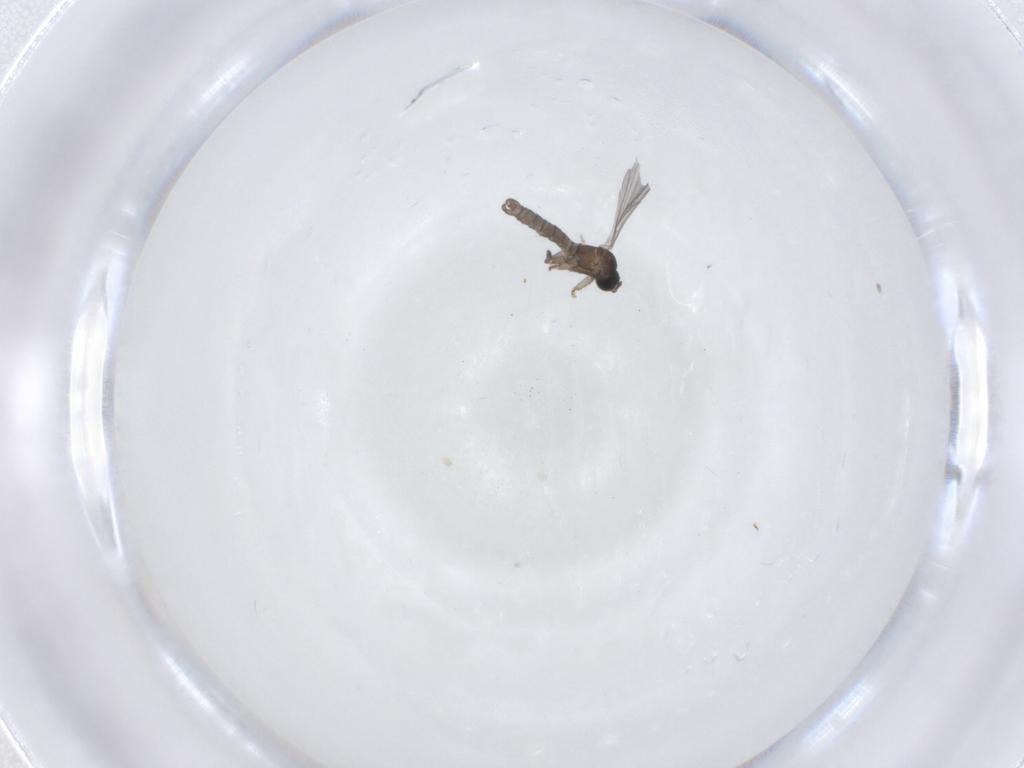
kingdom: Animalia
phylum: Arthropoda
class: Insecta
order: Diptera
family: Sciaridae
